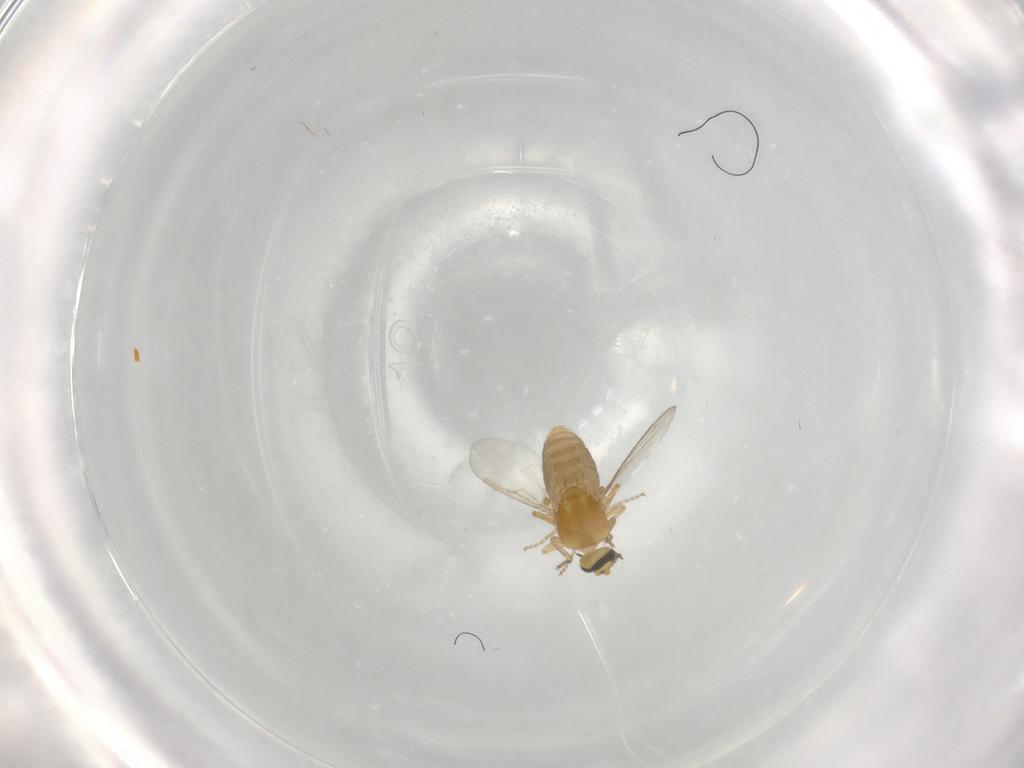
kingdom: Animalia
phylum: Arthropoda
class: Insecta
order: Diptera
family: Ceratopogonidae
